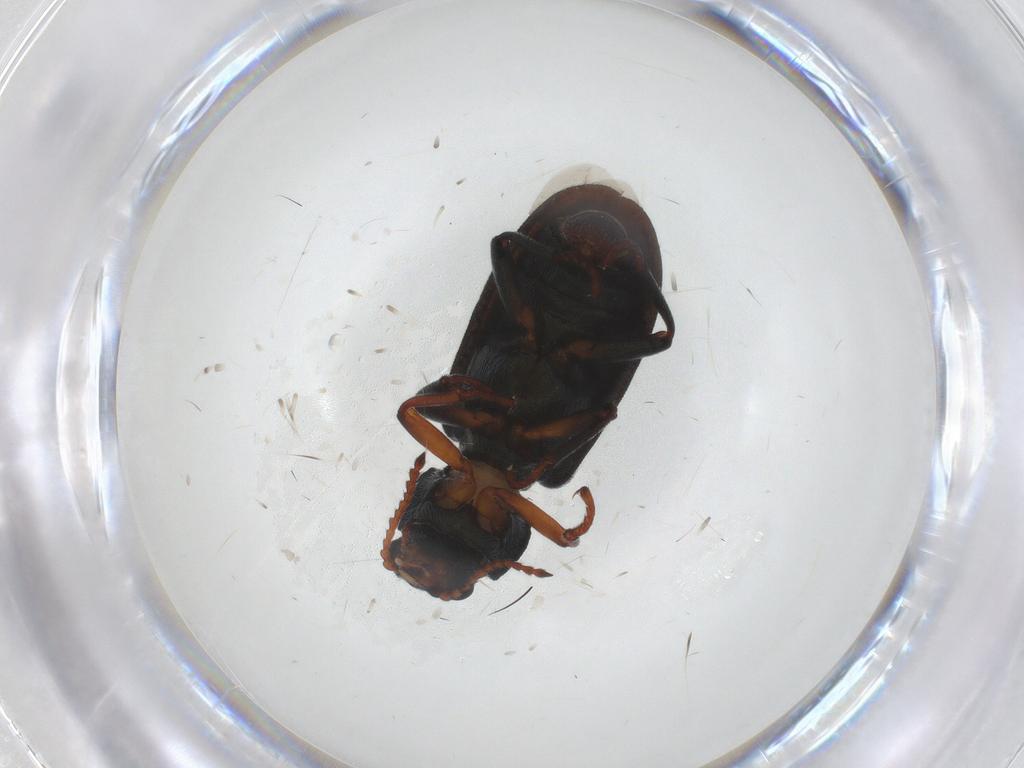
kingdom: Animalia
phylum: Arthropoda
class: Insecta
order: Coleoptera
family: Melyridae
